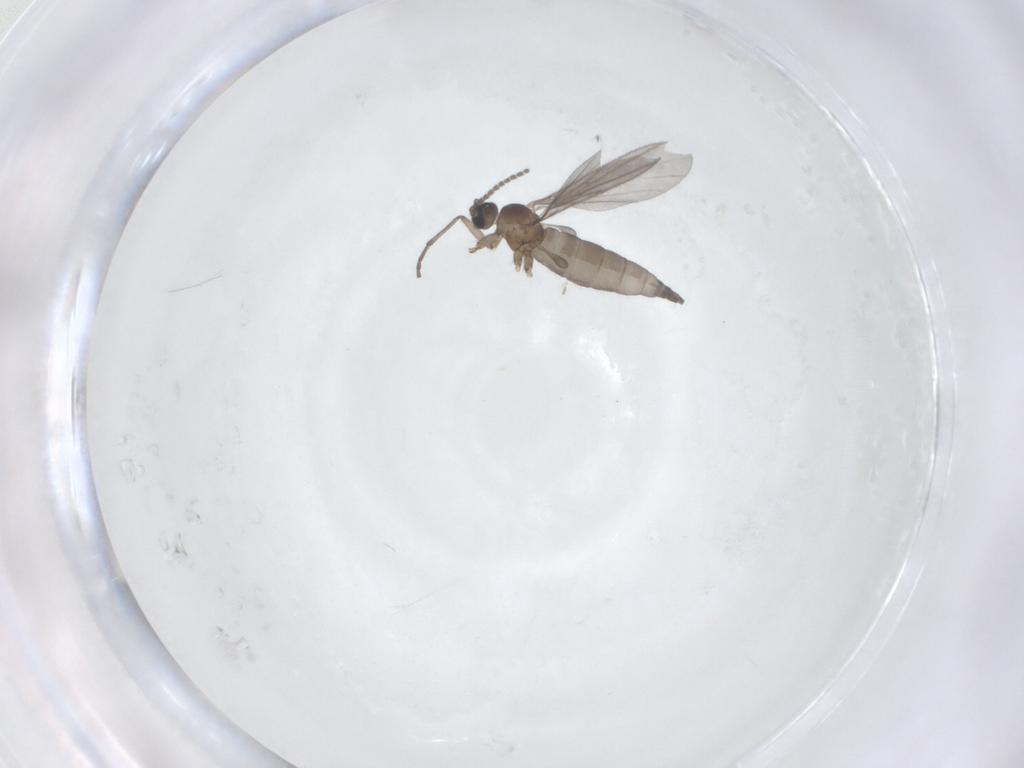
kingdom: Animalia
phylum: Arthropoda
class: Insecta
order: Diptera
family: Sciaridae
